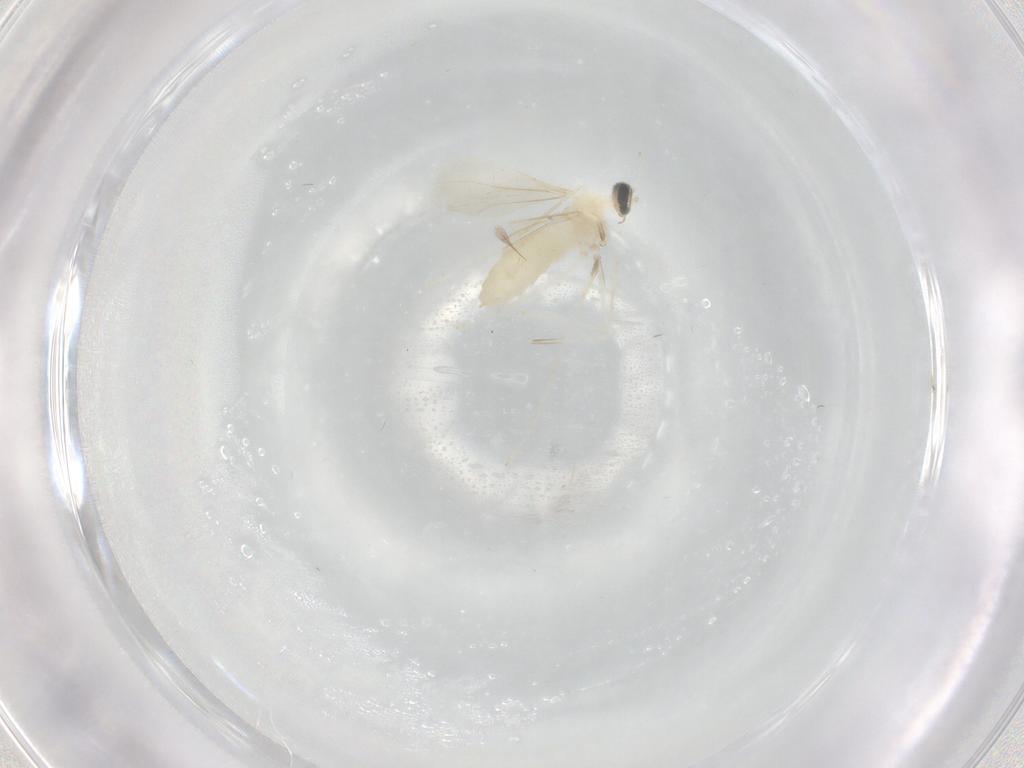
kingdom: Animalia
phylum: Arthropoda
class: Insecta
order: Diptera
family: Cecidomyiidae
